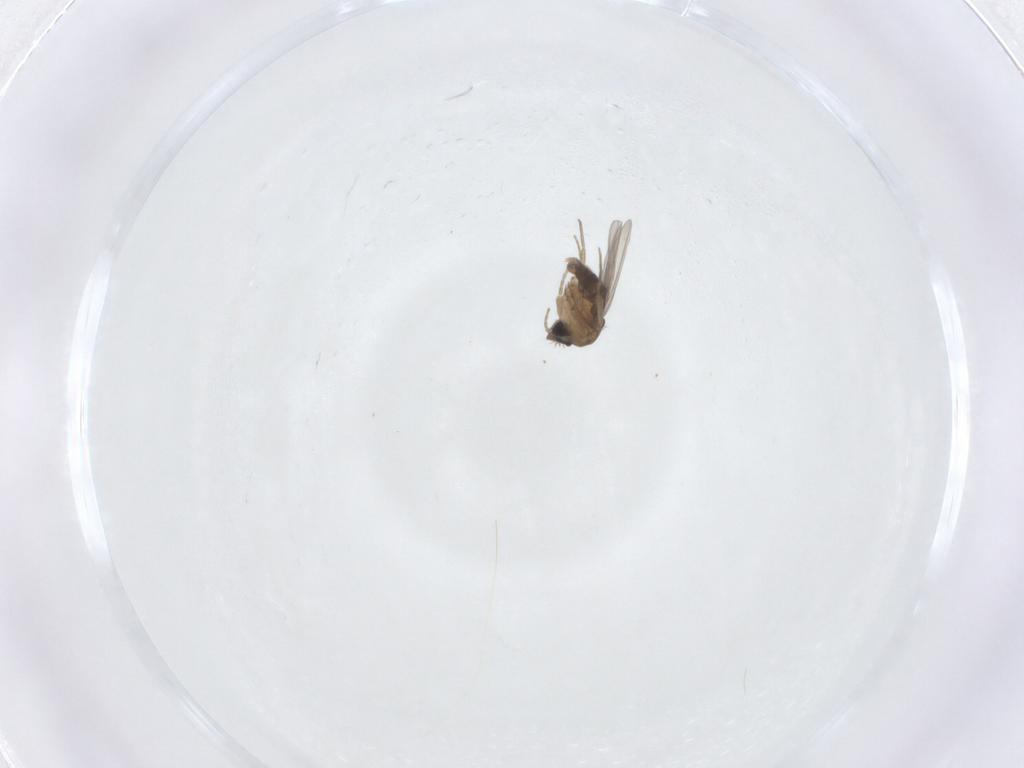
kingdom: Animalia
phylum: Arthropoda
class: Insecta
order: Diptera
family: Phoridae
